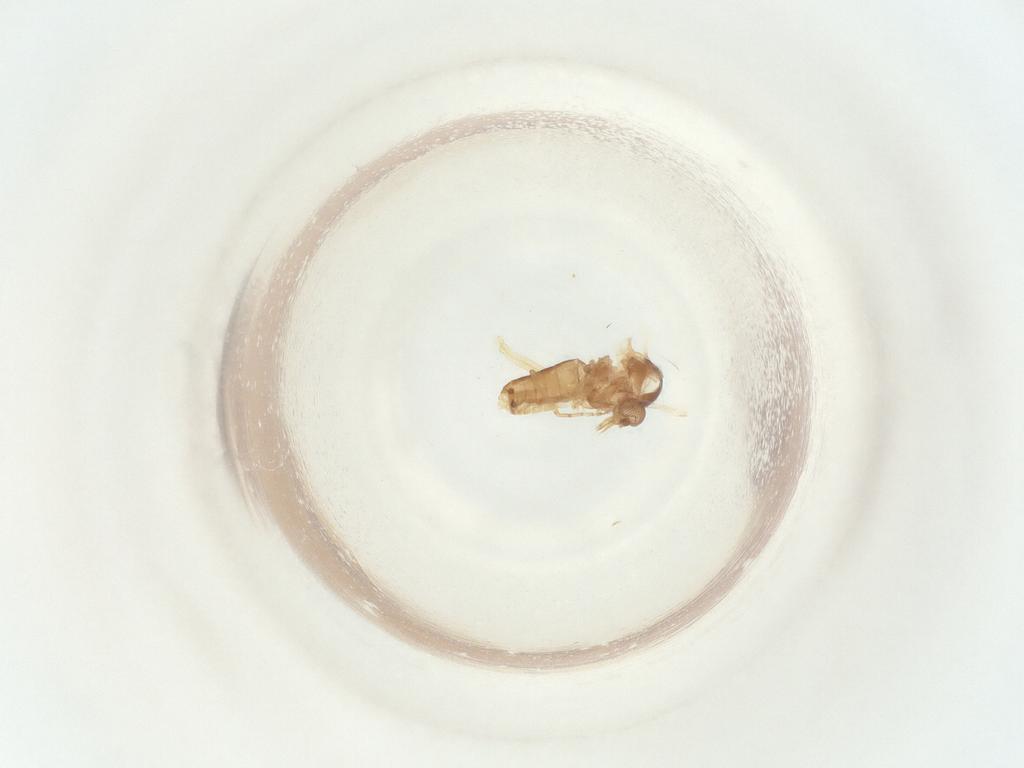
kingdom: Animalia
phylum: Arthropoda
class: Insecta
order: Diptera
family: Ceratopogonidae
